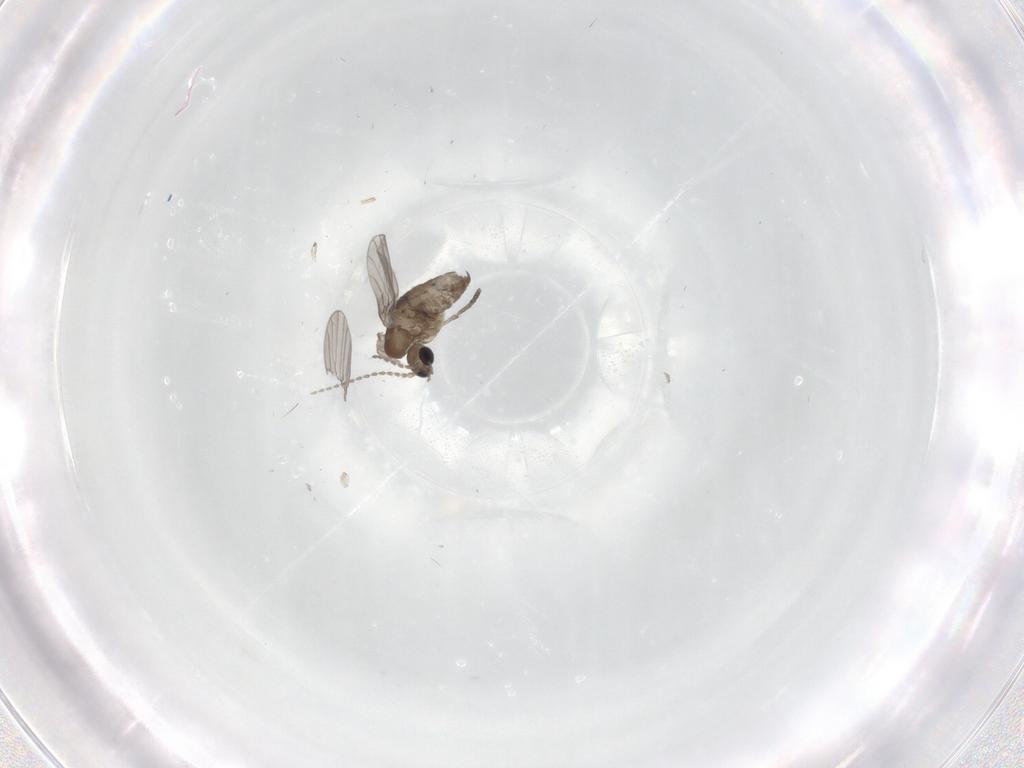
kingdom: Animalia
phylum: Arthropoda
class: Insecta
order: Diptera
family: Psychodidae
